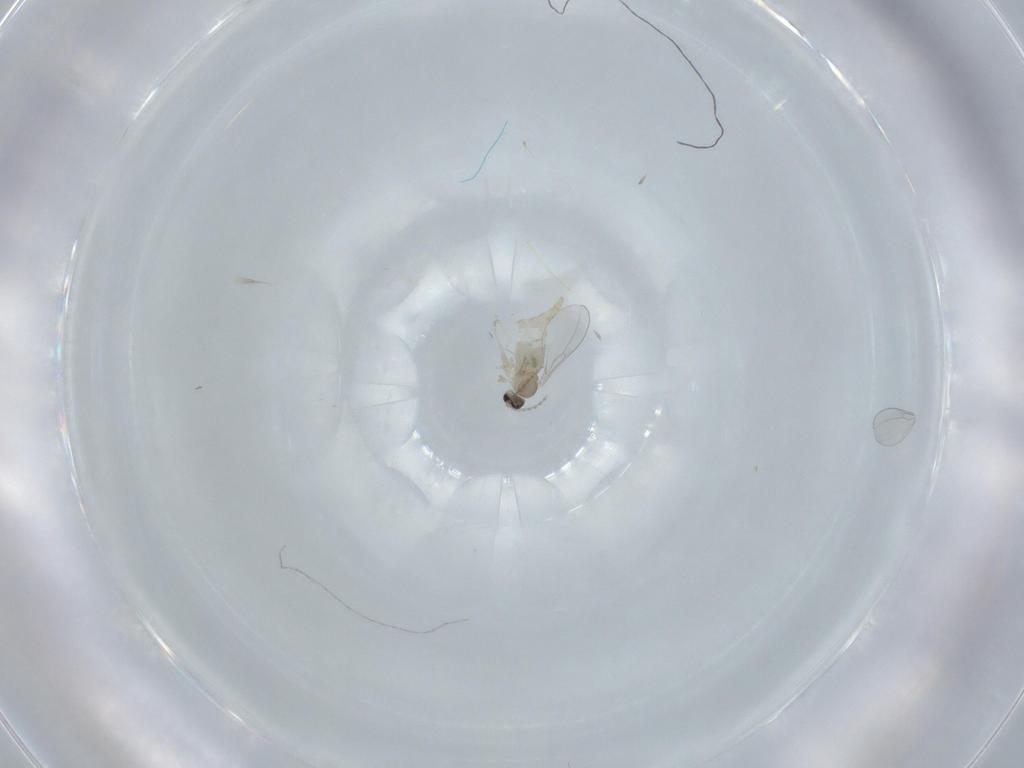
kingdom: Animalia
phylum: Arthropoda
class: Insecta
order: Diptera
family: Cecidomyiidae
